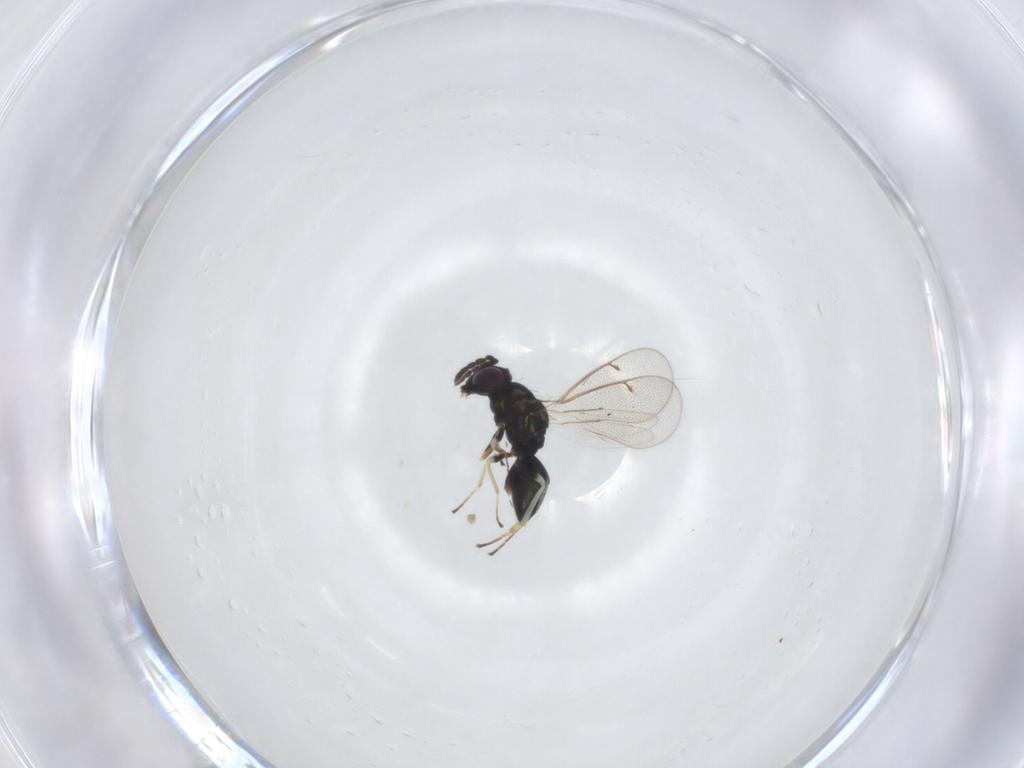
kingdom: Animalia
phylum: Arthropoda
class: Insecta
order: Hymenoptera
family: Eulophidae
